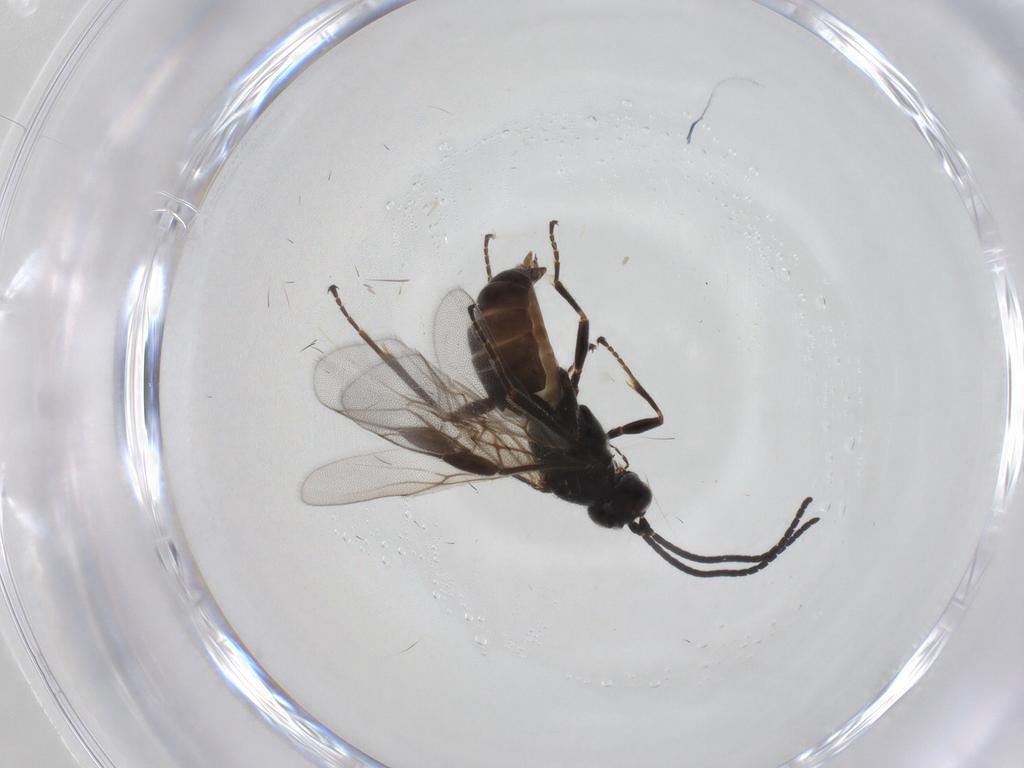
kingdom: Animalia
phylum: Arthropoda
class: Insecta
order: Hymenoptera
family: Braconidae
